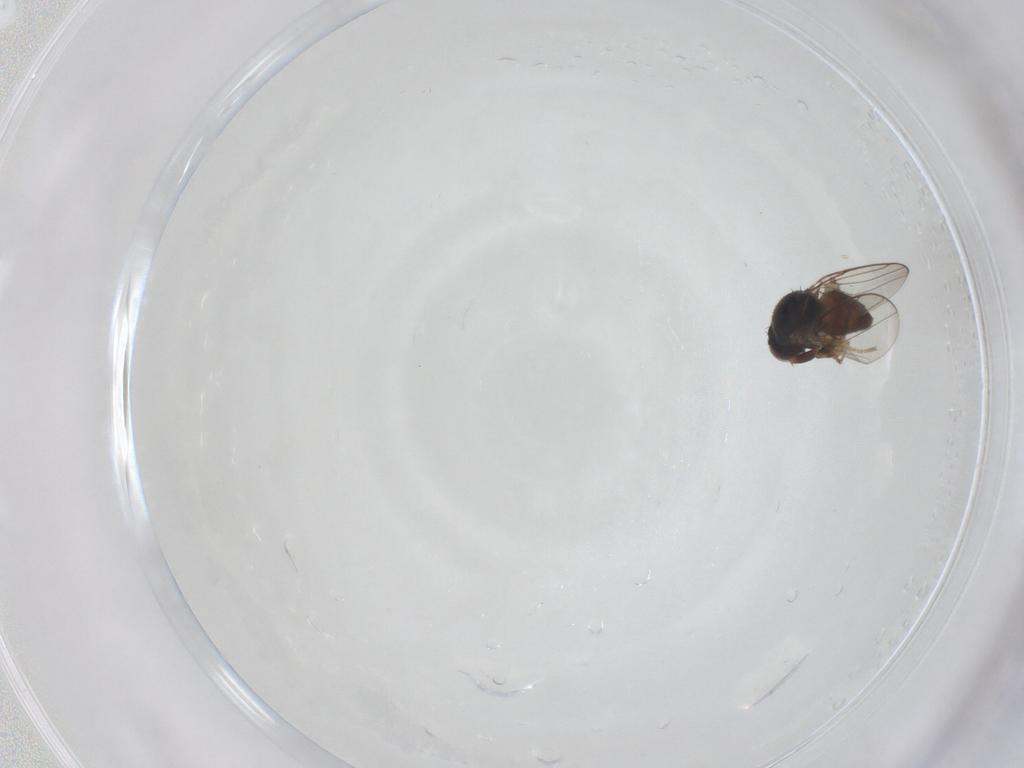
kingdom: Animalia
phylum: Arthropoda
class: Insecta
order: Diptera
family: Chloropidae
